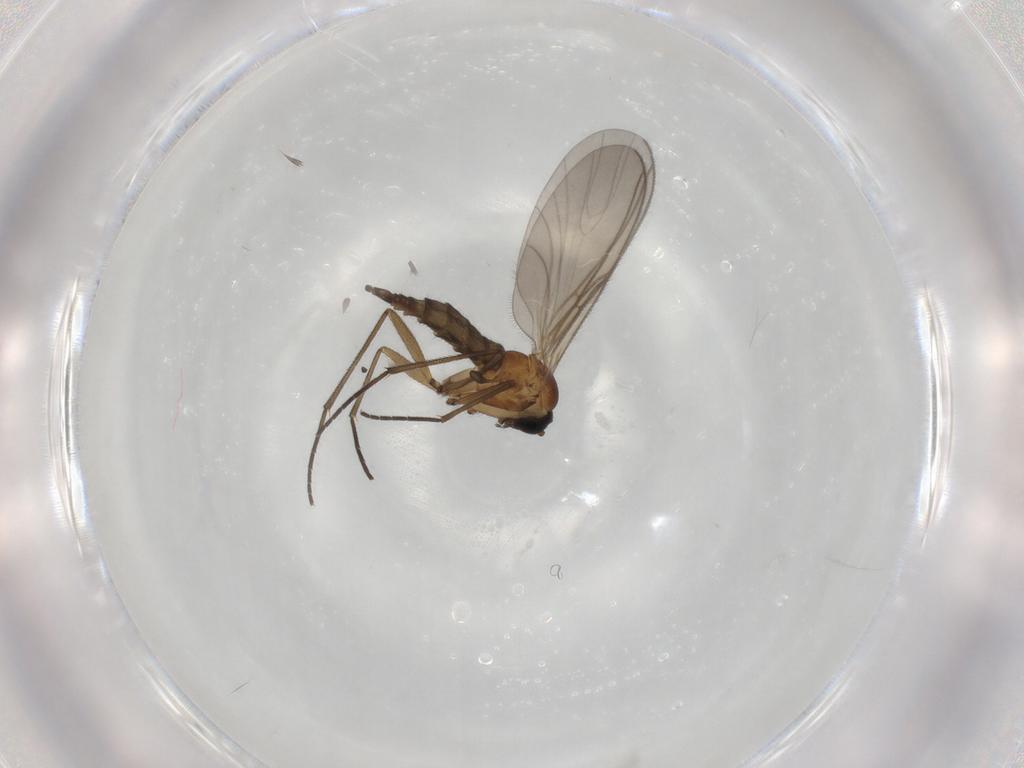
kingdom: Animalia
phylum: Arthropoda
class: Insecta
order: Diptera
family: Sciaridae
